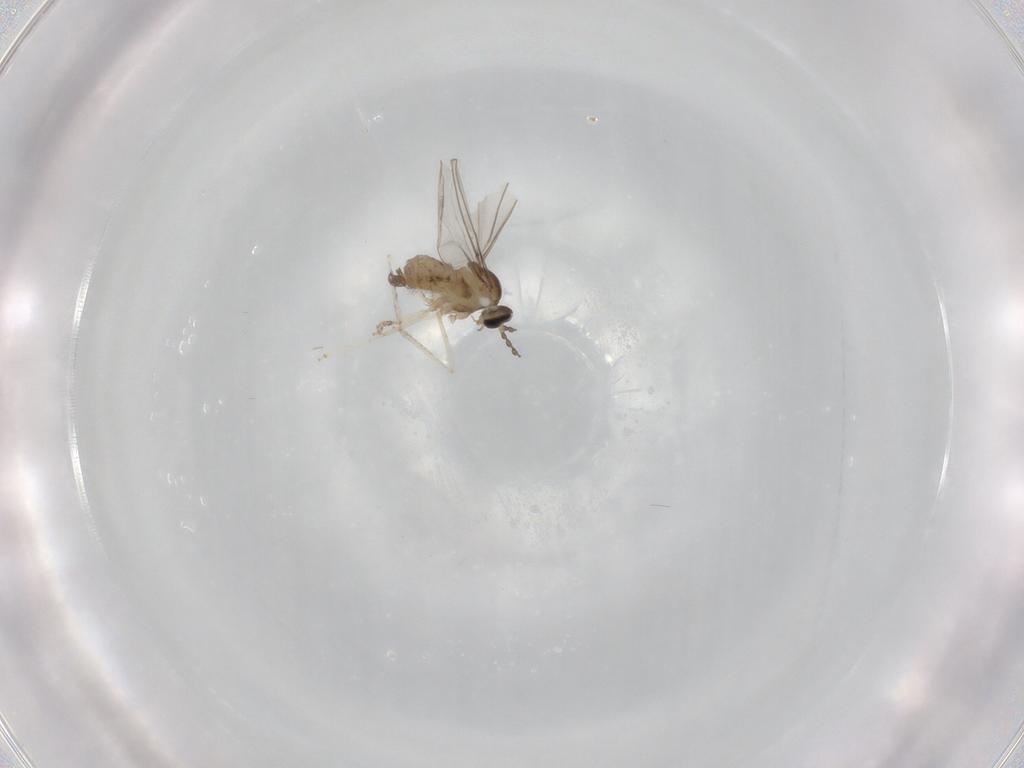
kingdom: Animalia
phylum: Arthropoda
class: Insecta
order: Diptera
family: Cecidomyiidae
